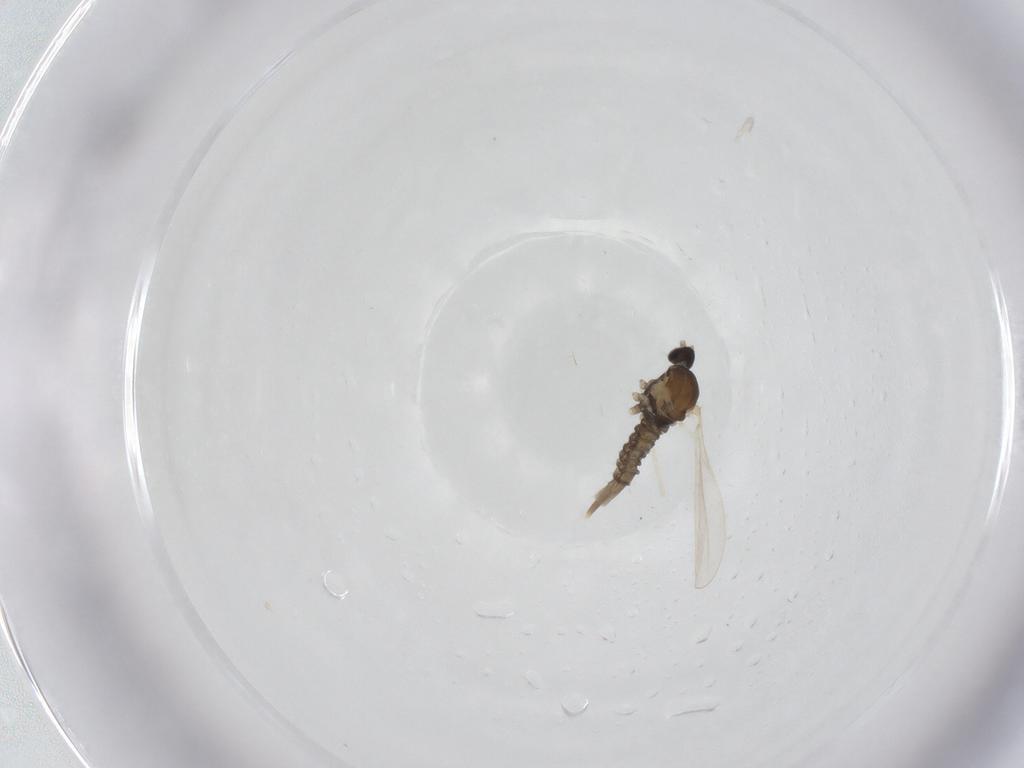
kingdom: Animalia
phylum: Arthropoda
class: Insecta
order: Diptera
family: Cecidomyiidae
